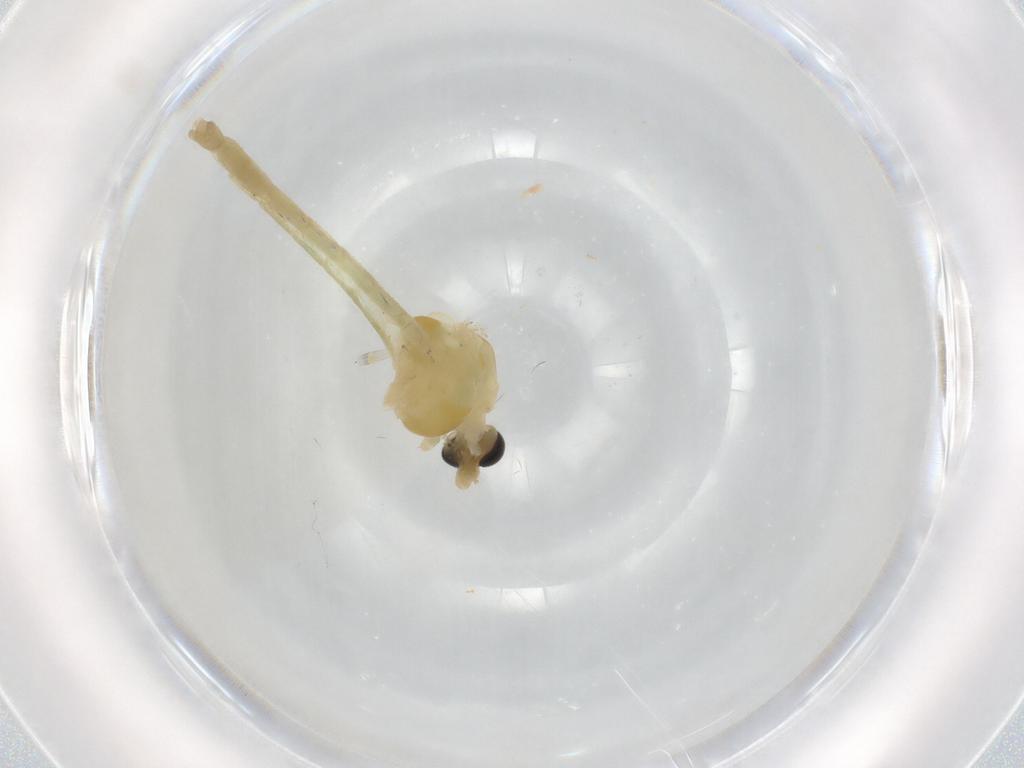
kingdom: Animalia
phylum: Arthropoda
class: Insecta
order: Diptera
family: Chironomidae
